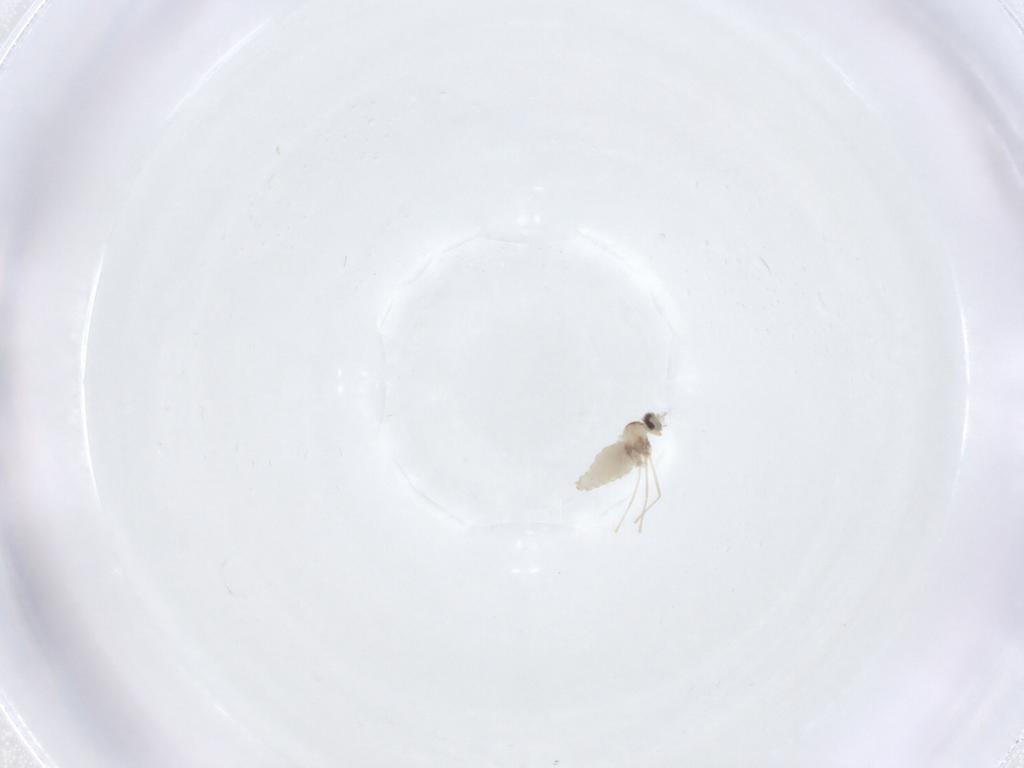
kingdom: Animalia
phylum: Arthropoda
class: Insecta
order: Diptera
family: Cecidomyiidae
